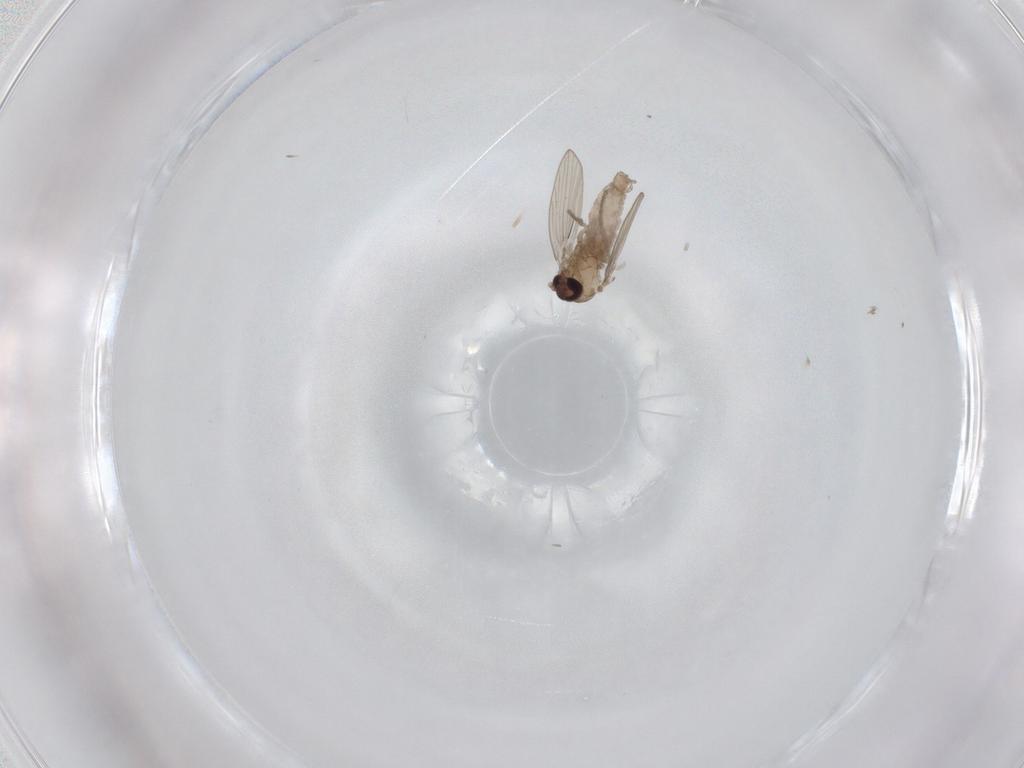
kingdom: Animalia
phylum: Arthropoda
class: Insecta
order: Diptera
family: Psychodidae
